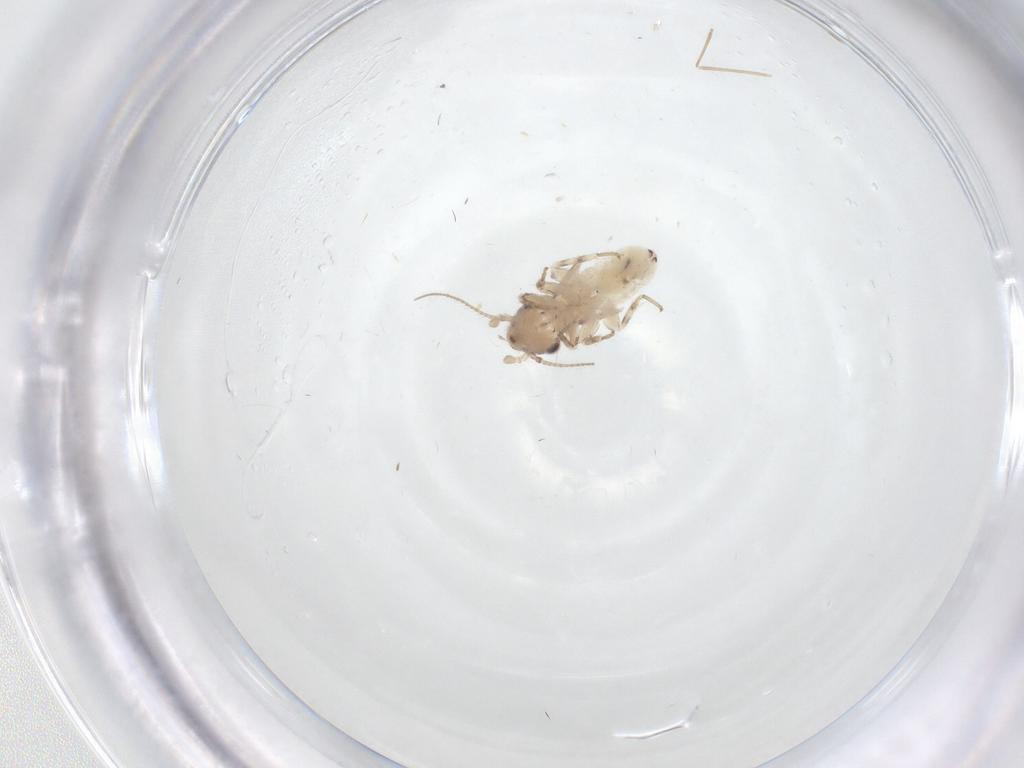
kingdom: Animalia
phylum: Arthropoda
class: Insecta
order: Psocodea
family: Lepidopsocidae
